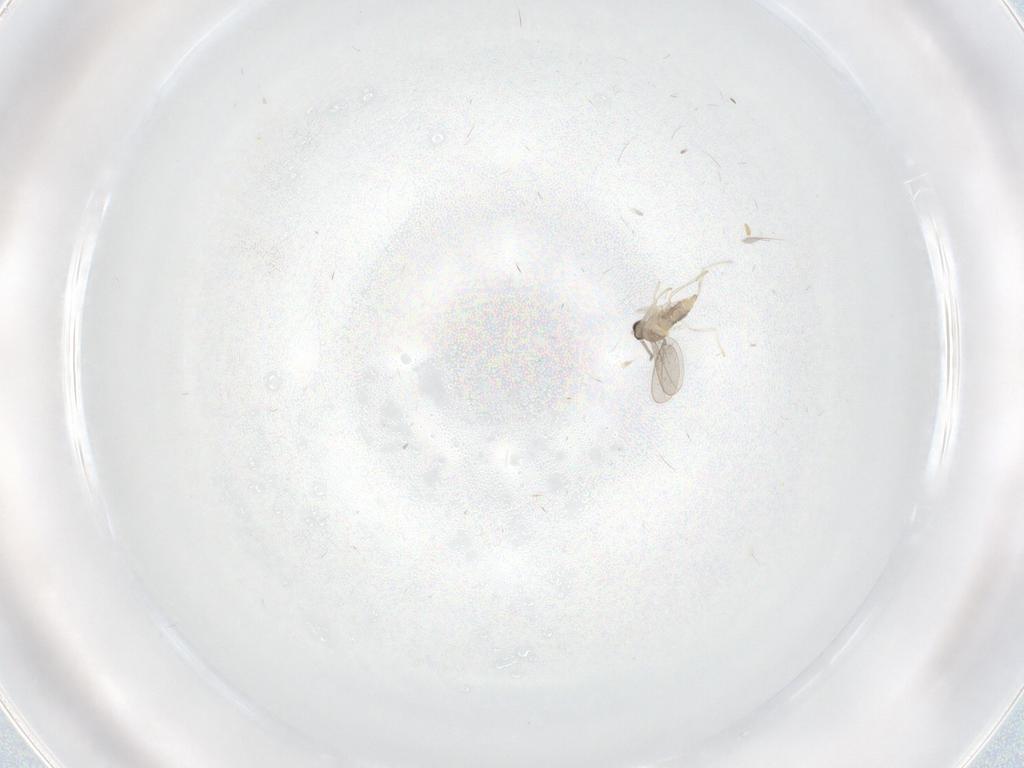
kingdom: Animalia
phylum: Arthropoda
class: Insecta
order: Diptera
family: Cecidomyiidae
